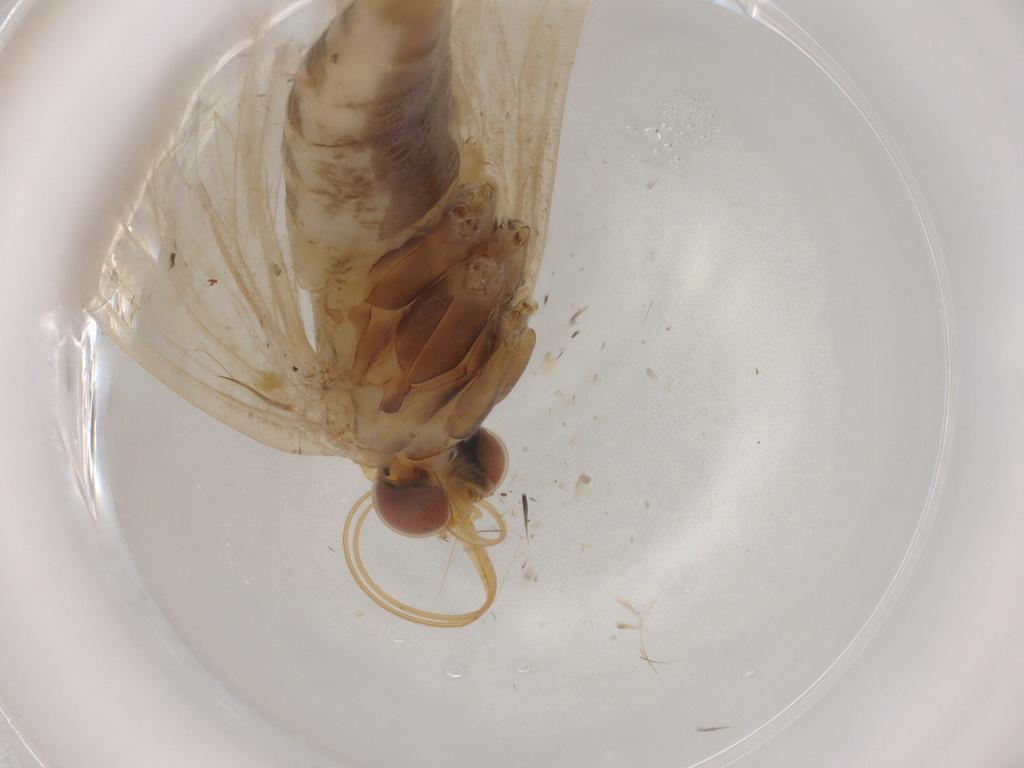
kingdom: Animalia
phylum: Arthropoda
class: Insecta
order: Lepidoptera
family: Crambidae
